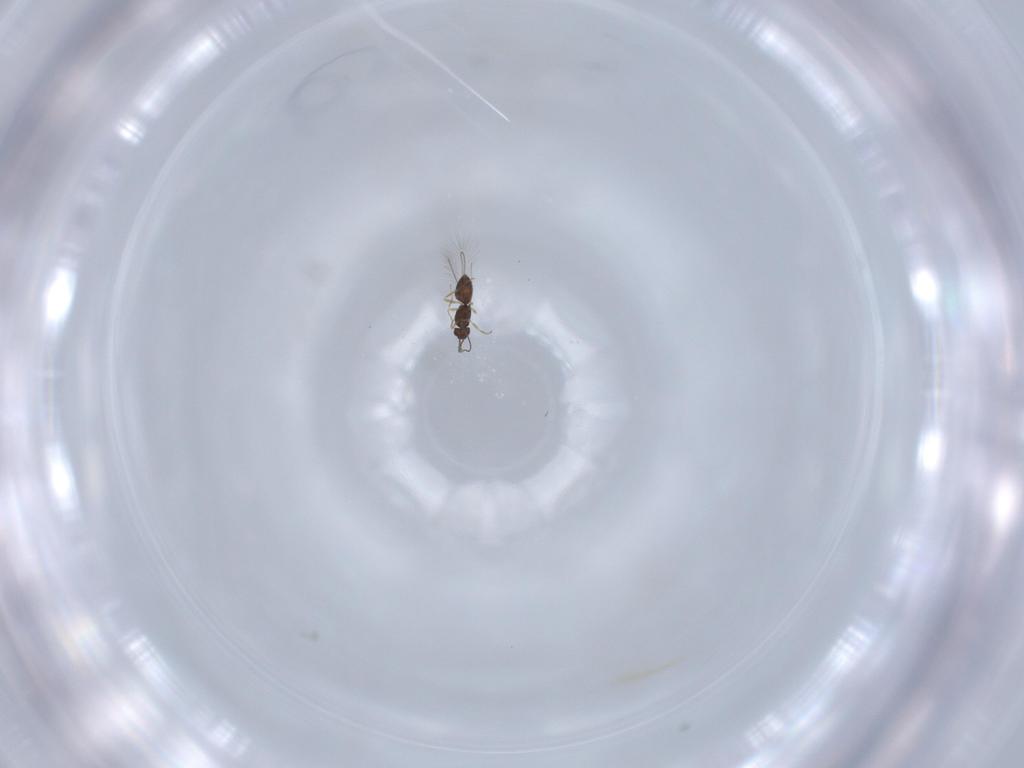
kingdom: Animalia
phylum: Arthropoda
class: Insecta
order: Hymenoptera
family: Mymaridae
